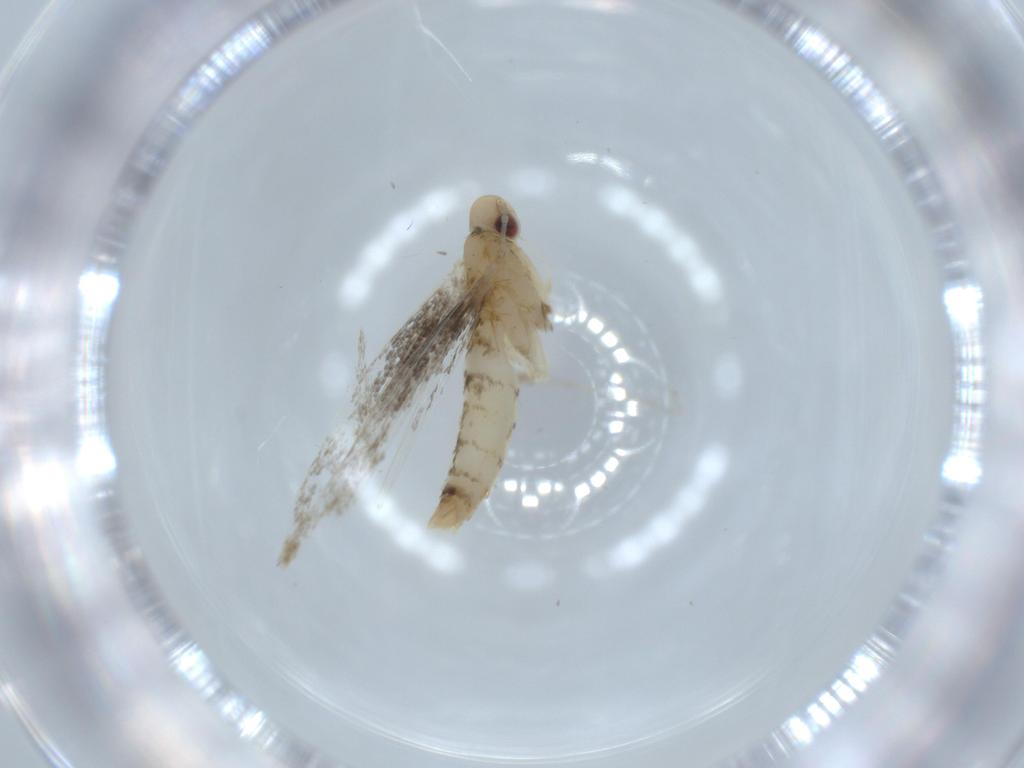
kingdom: Animalia
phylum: Arthropoda
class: Insecta
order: Lepidoptera
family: Gracillariidae
